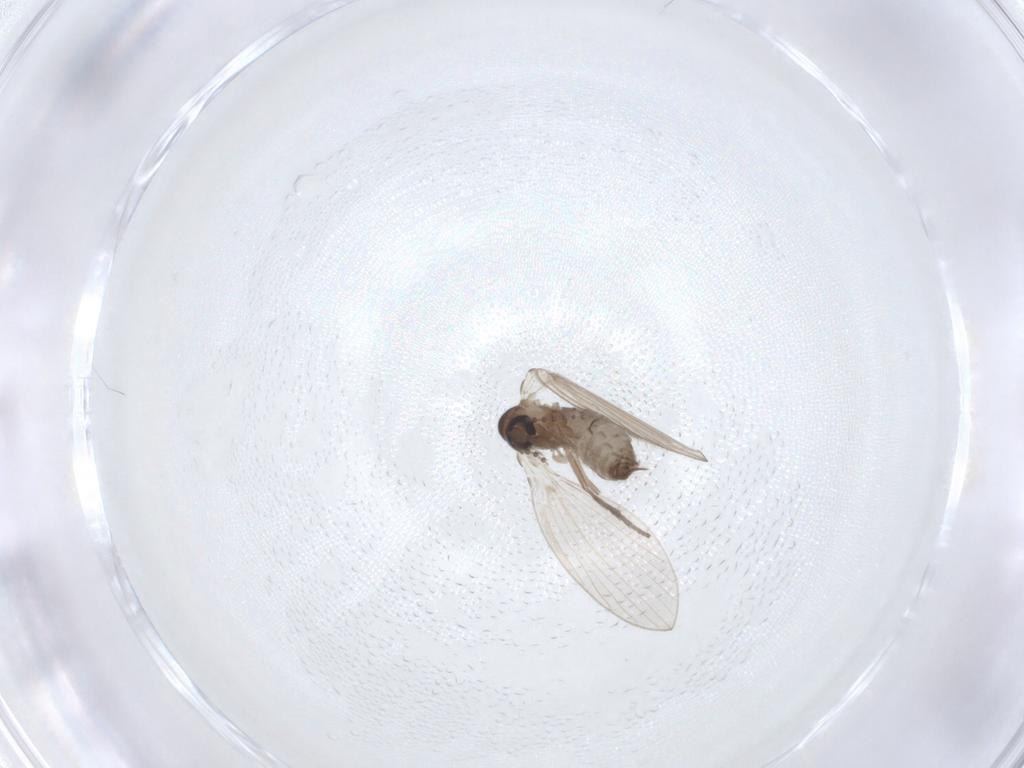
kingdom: Animalia
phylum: Arthropoda
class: Insecta
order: Diptera
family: Psychodidae
